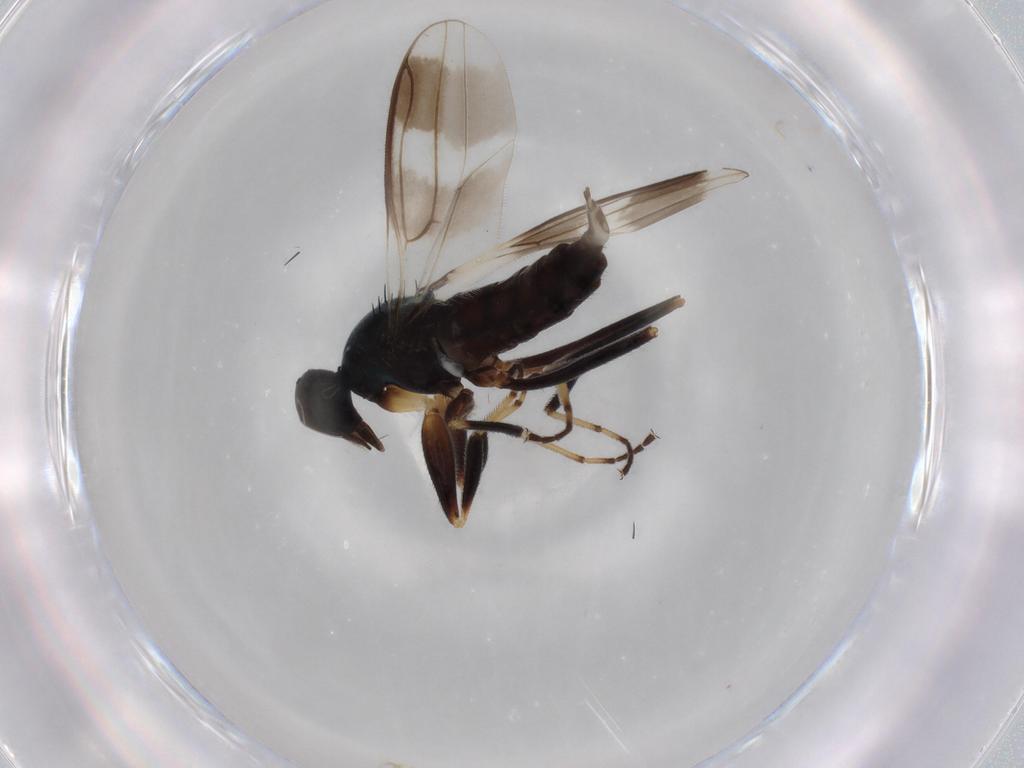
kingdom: Animalia
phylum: Arthropoda
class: Insecta
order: Diptera
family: Hybotidae
